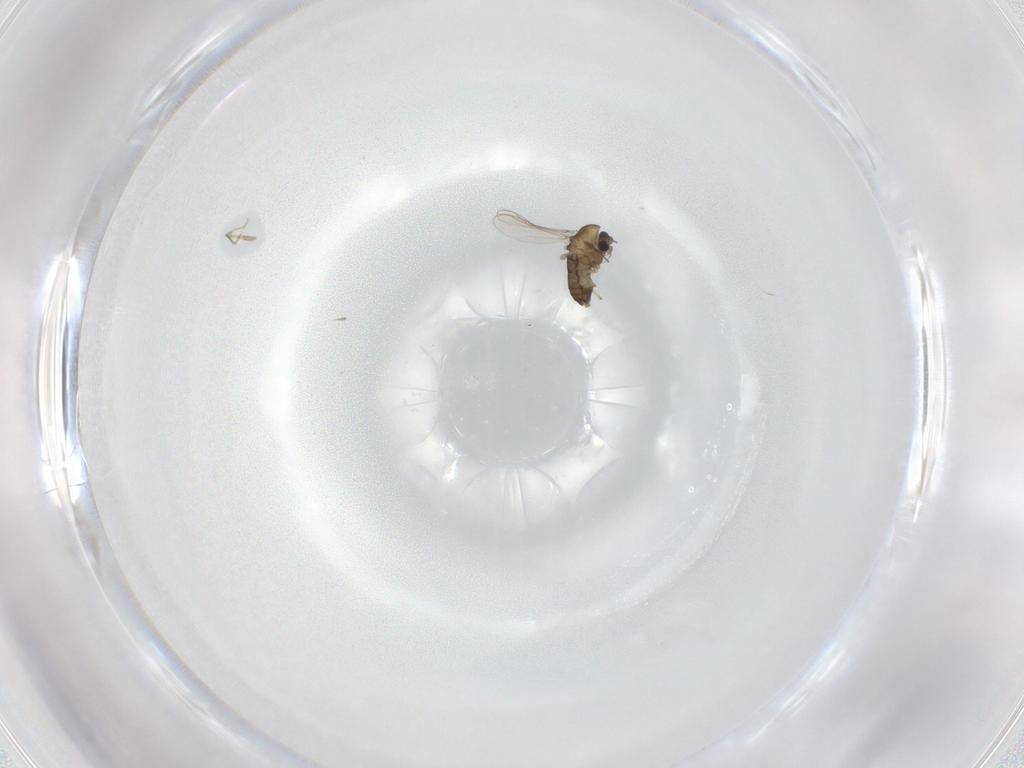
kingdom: Animalia
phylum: Arthropoda
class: Insecta
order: Diptera
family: Chironomidae
